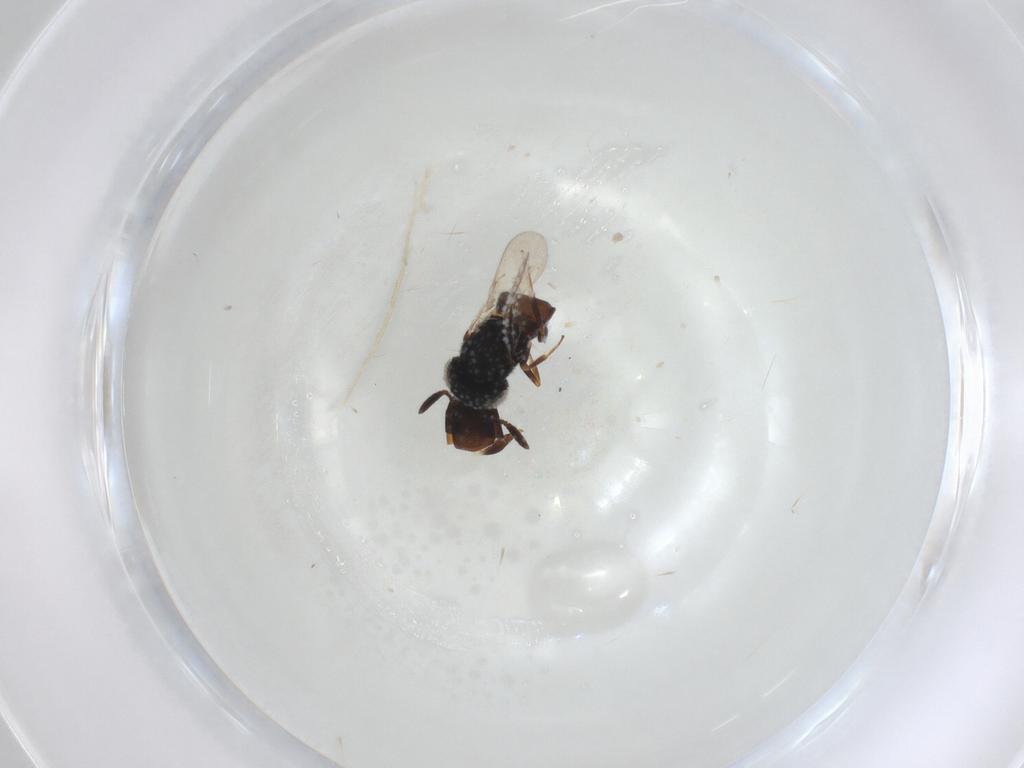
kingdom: Animalia
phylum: Arthropoda
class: Insecta
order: Hymenoptera
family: Scelionidae
